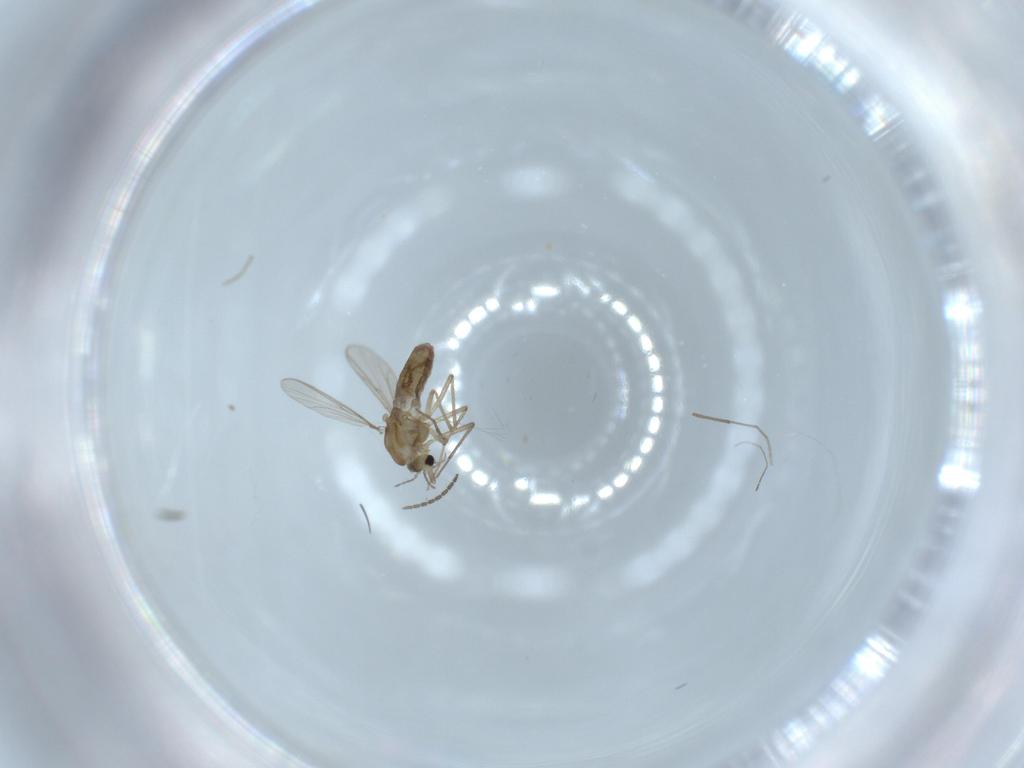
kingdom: Animalia
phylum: Arthropoda
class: Insecta
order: Diptera
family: Chironomidae
